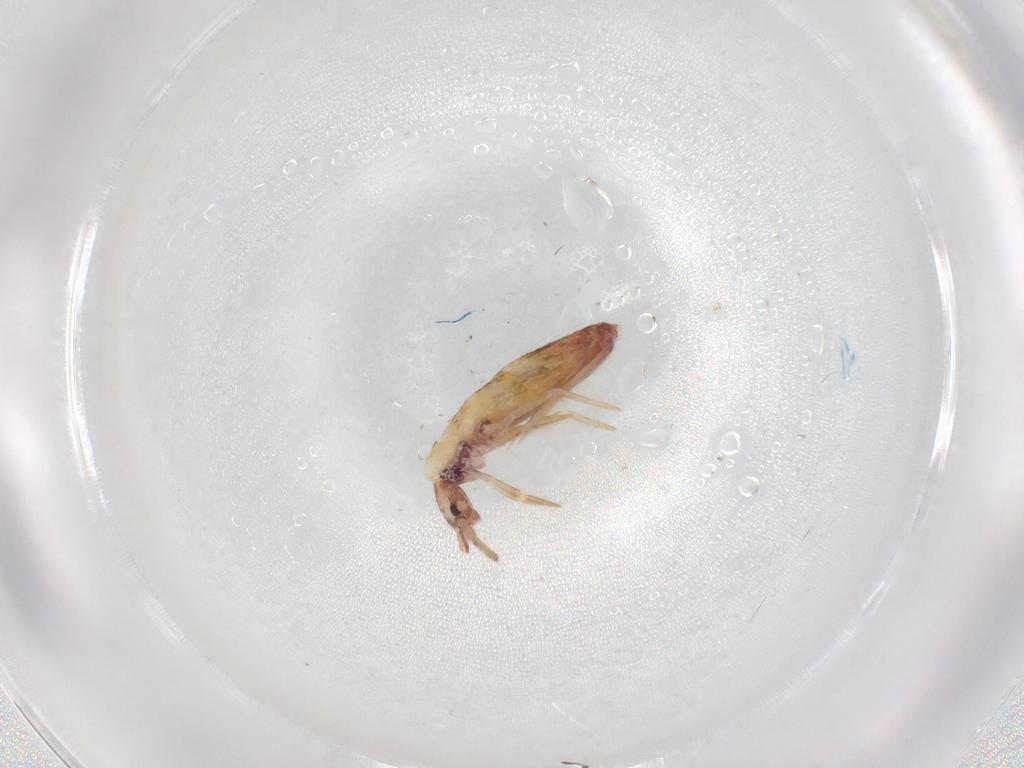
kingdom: Animalia
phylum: Arthropoda
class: Collembola
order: Entomobryomorpha
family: Entomobryidae
